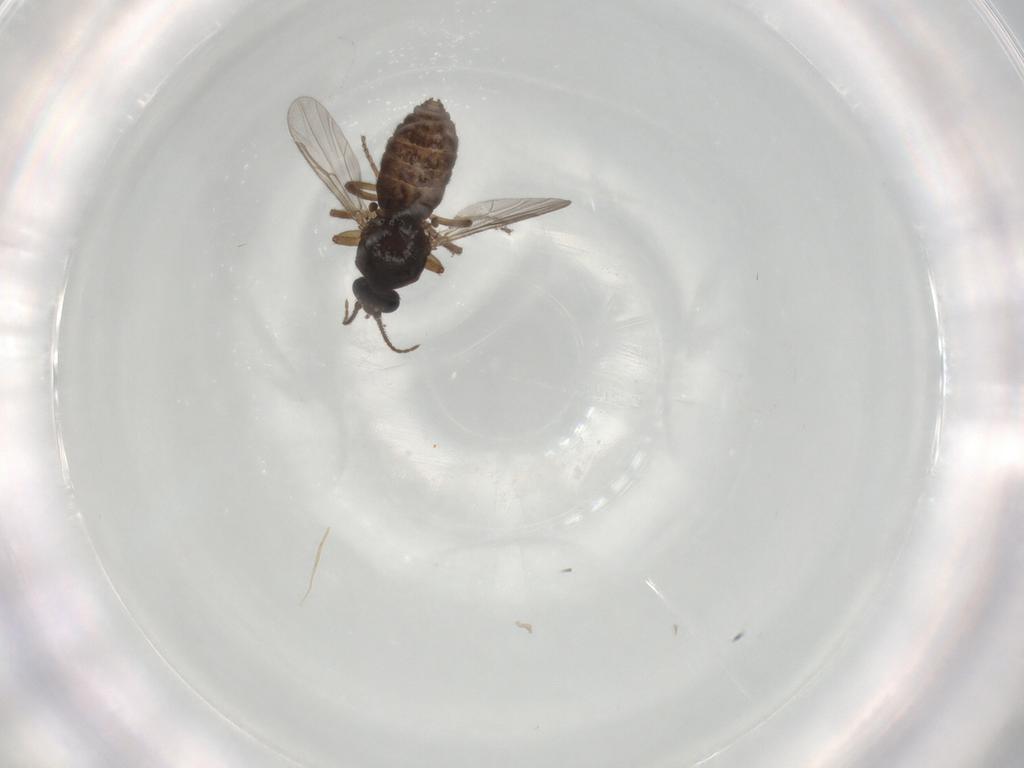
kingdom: Animalia
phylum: Arthropoda
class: Insecta
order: Diptera
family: Ceratopogonidae
